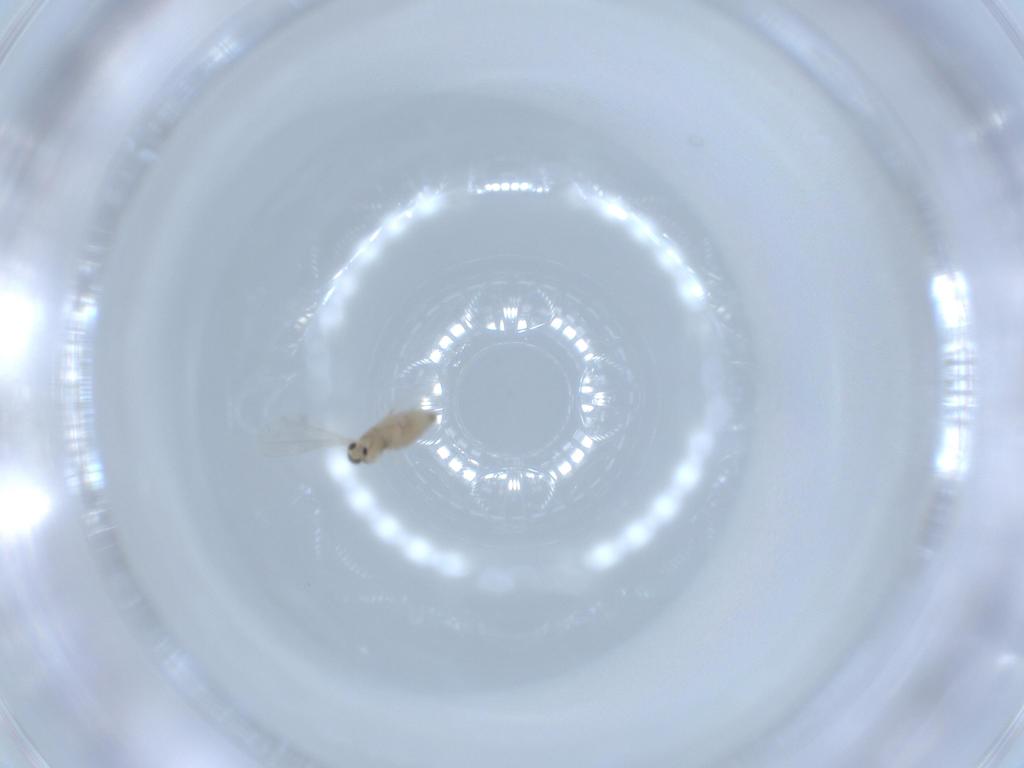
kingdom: Animalia
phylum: Arthropoda
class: Insecta
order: Diptera
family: Cecidomyiidae
